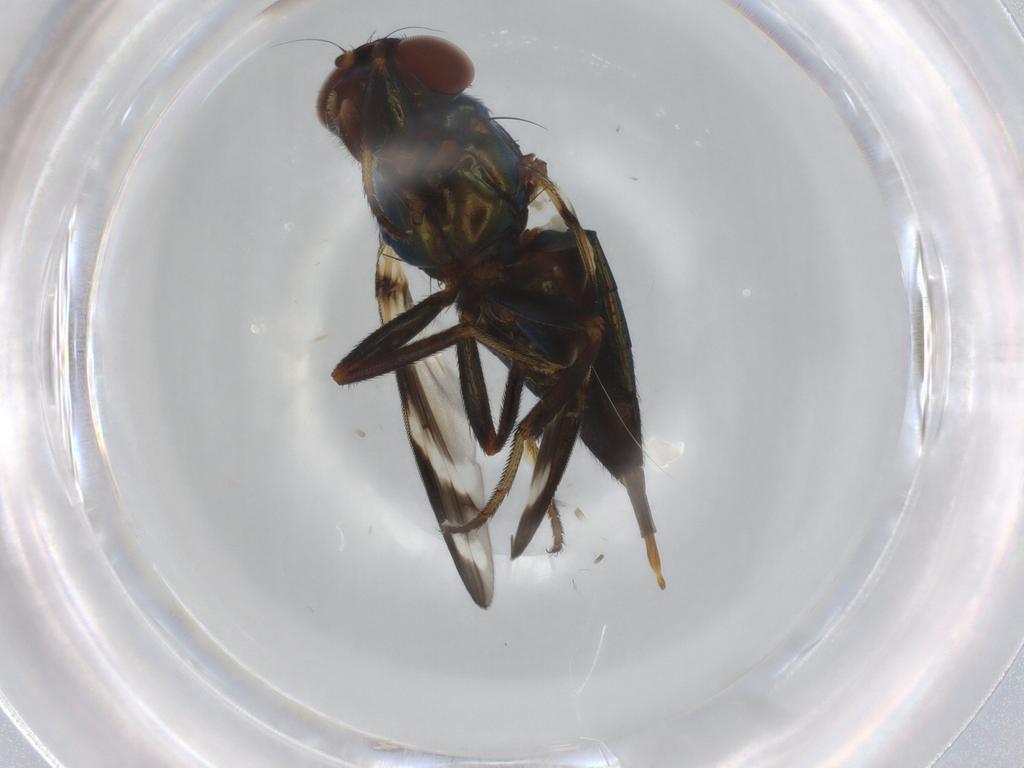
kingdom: Animalia
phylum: Arthropoda
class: Insecta
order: Diptera
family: Ulidiidae
